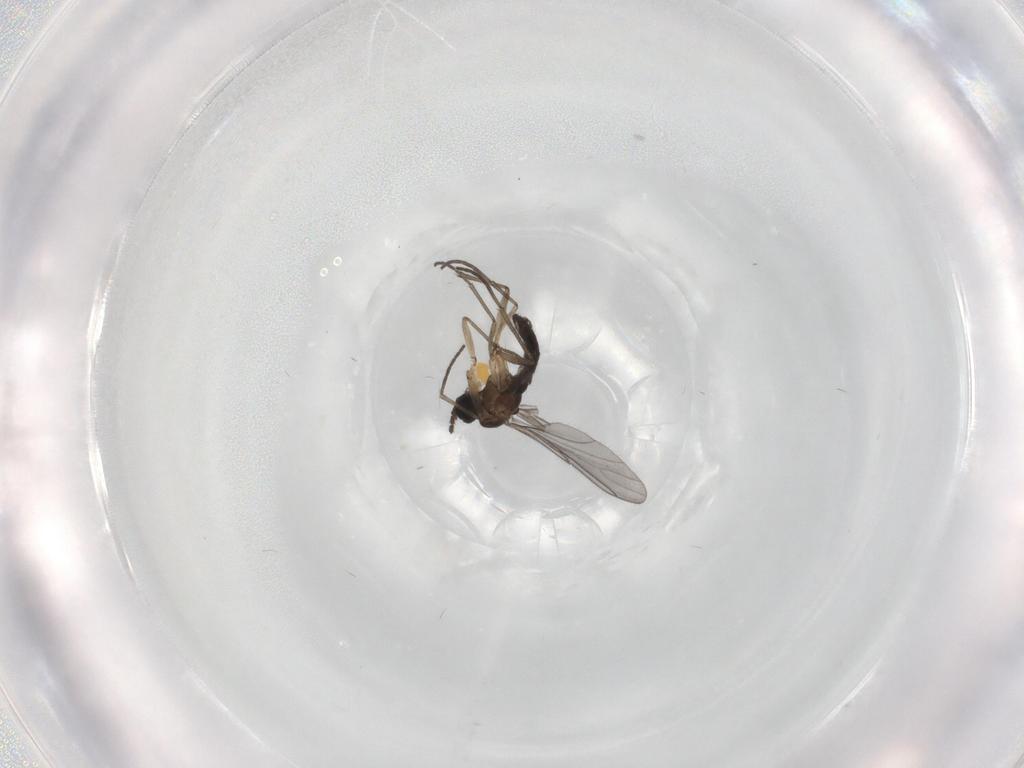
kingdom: Animalia
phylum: Arthropoda
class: Insecta
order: Diptera
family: Sciaridae
